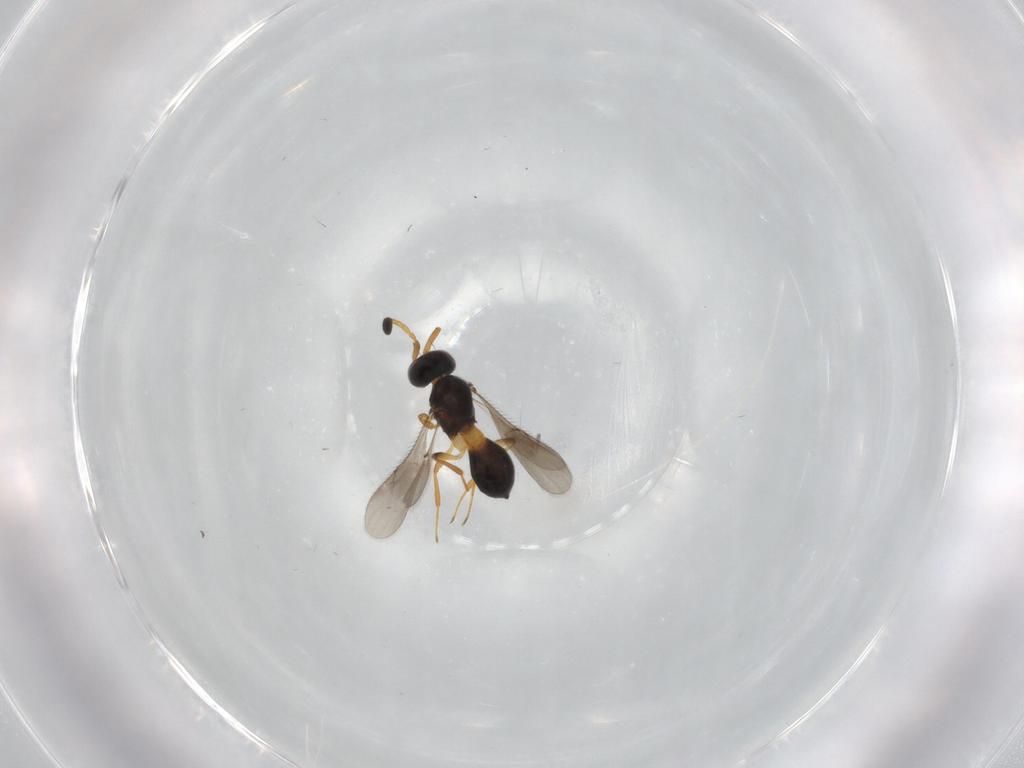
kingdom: Animalia
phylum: Arthropoda
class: Insecta
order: Hymenoptera
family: Scelionidae
